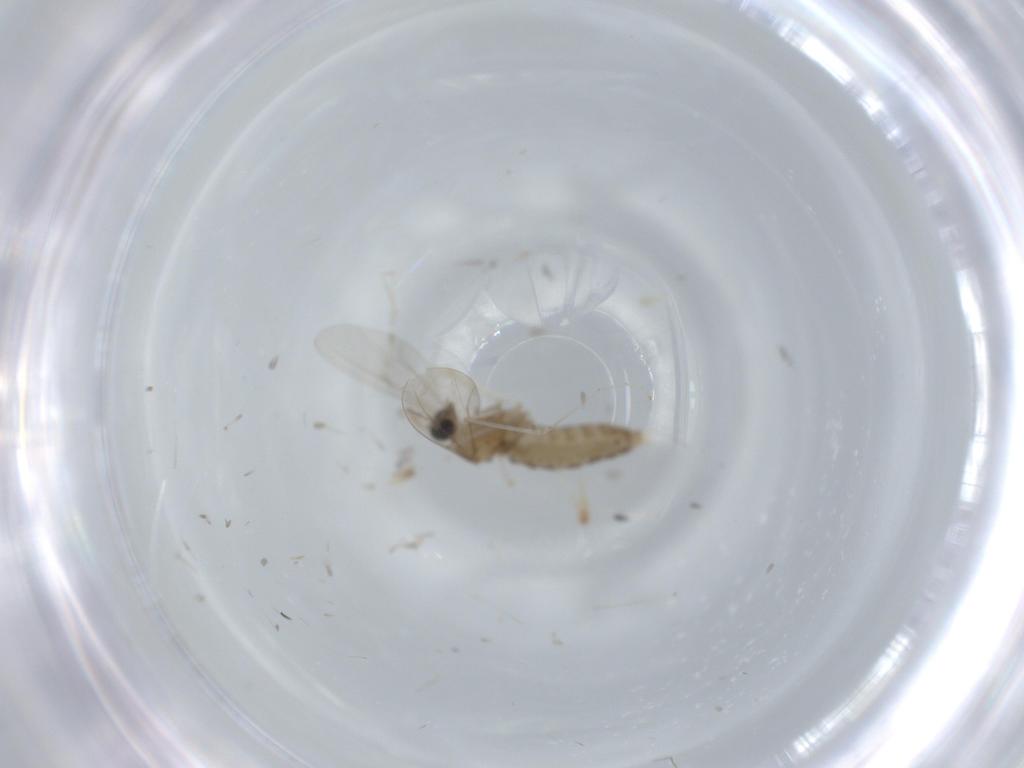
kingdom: Animalia
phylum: Arthropoda
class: Insecta
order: Diptera
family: Cecidomyiidae
